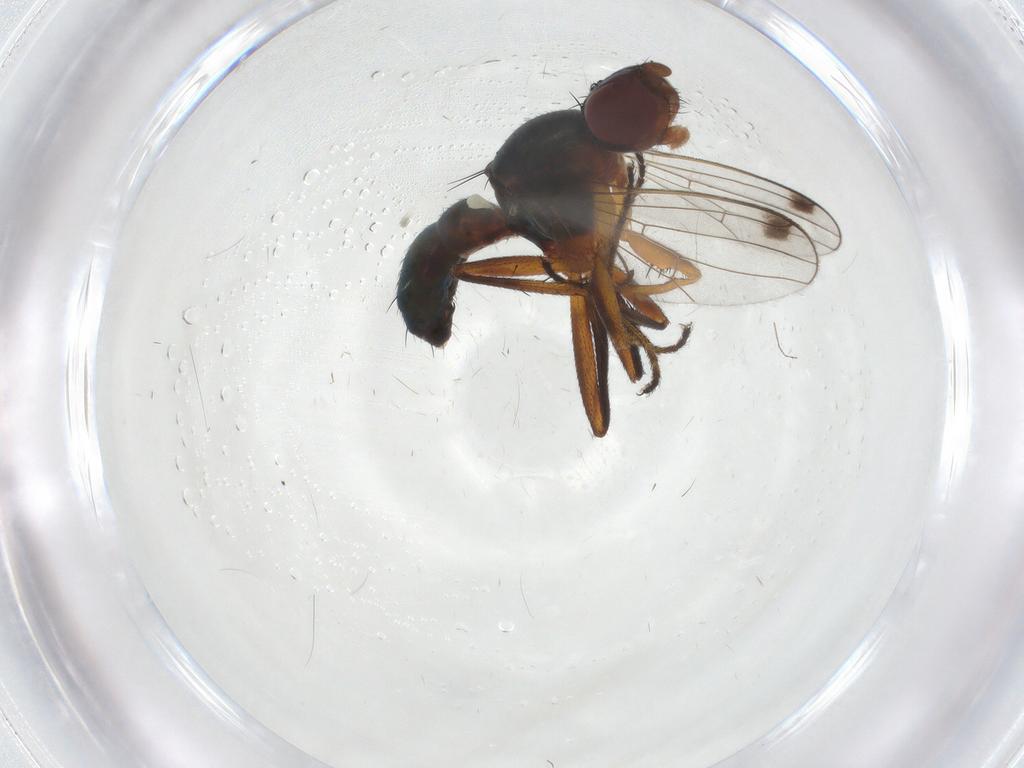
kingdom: Animalia
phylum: Arthropoda
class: Insecta
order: Diptera
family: Sepsidae
